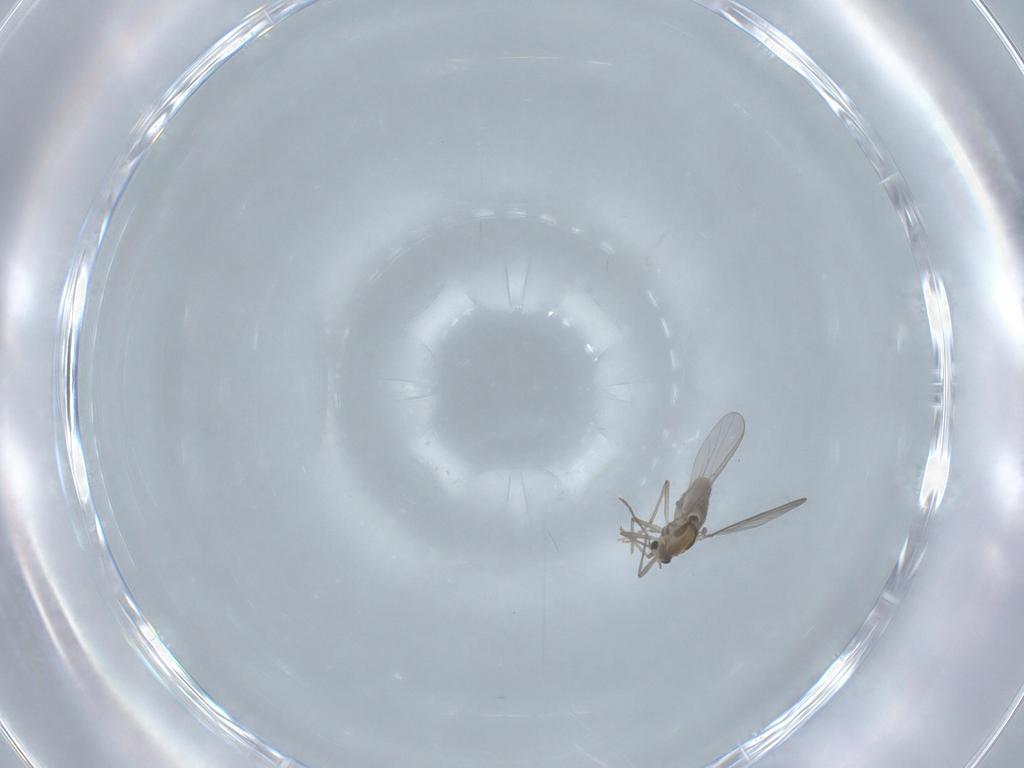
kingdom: Animalia
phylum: Arthropoda
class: Insecta
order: Diptera
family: Chironomidae
